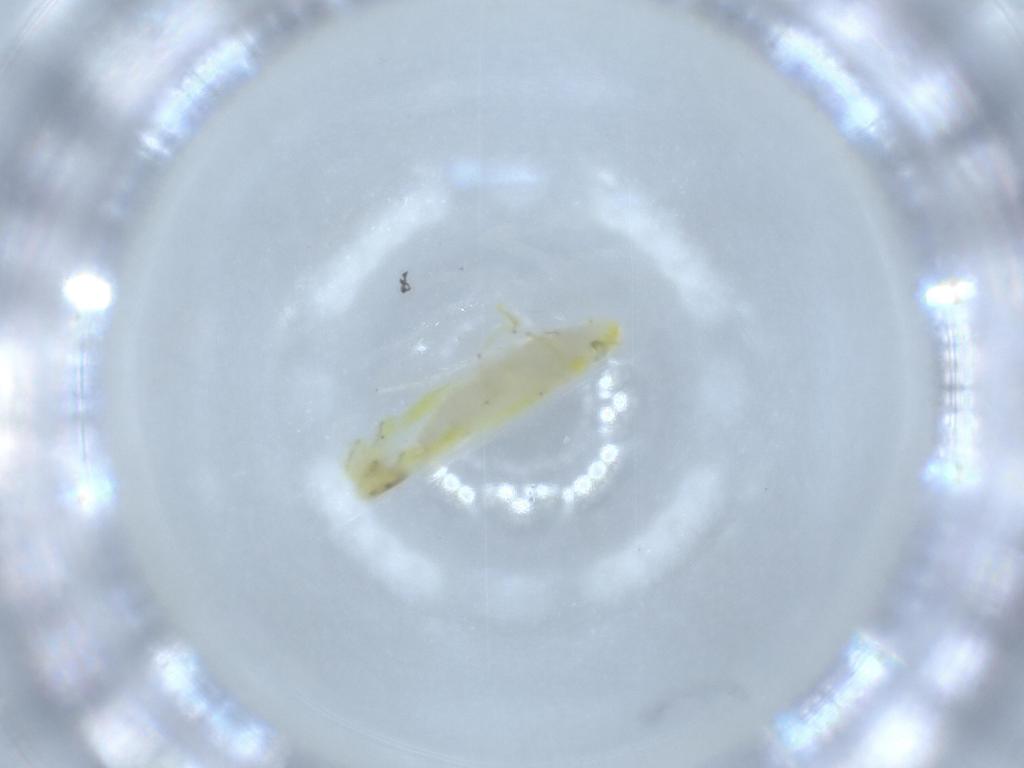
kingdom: Animalia
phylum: Arthropoda
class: Insecta
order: Hemiptera
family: Cicadellidae
